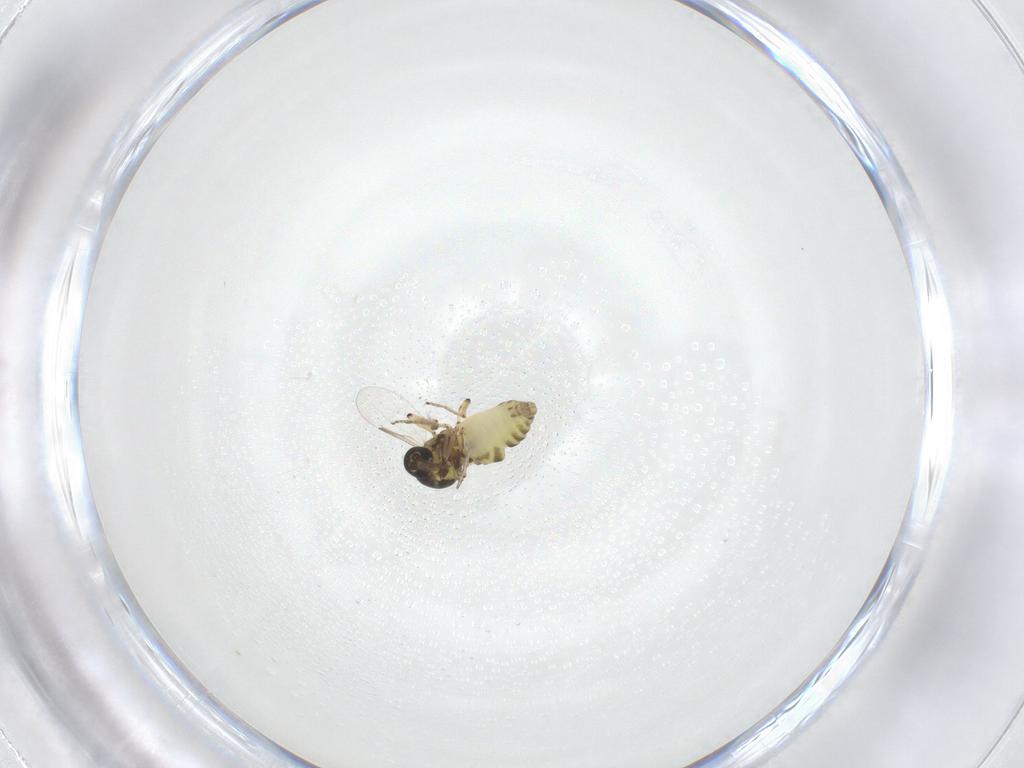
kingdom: Animalia
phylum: Arthropoda
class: Insecta
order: Diptera
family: Ceratopogonidae
